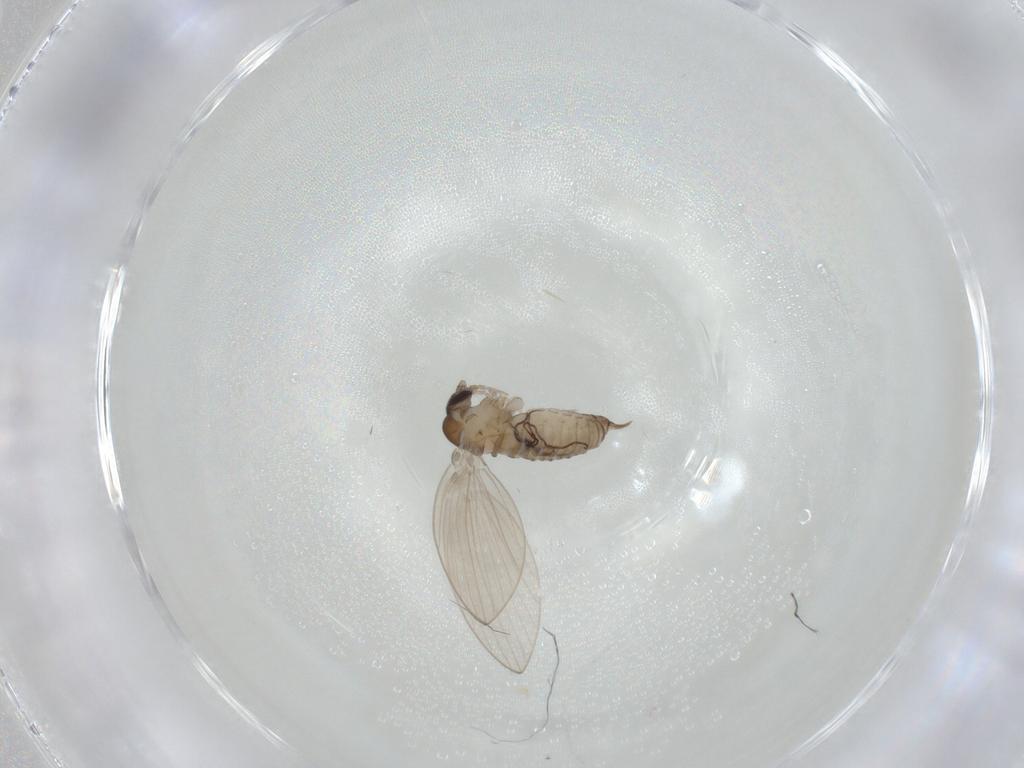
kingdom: Animalia
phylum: Arthropoda
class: Insecta
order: Diptera
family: Psychodidae
